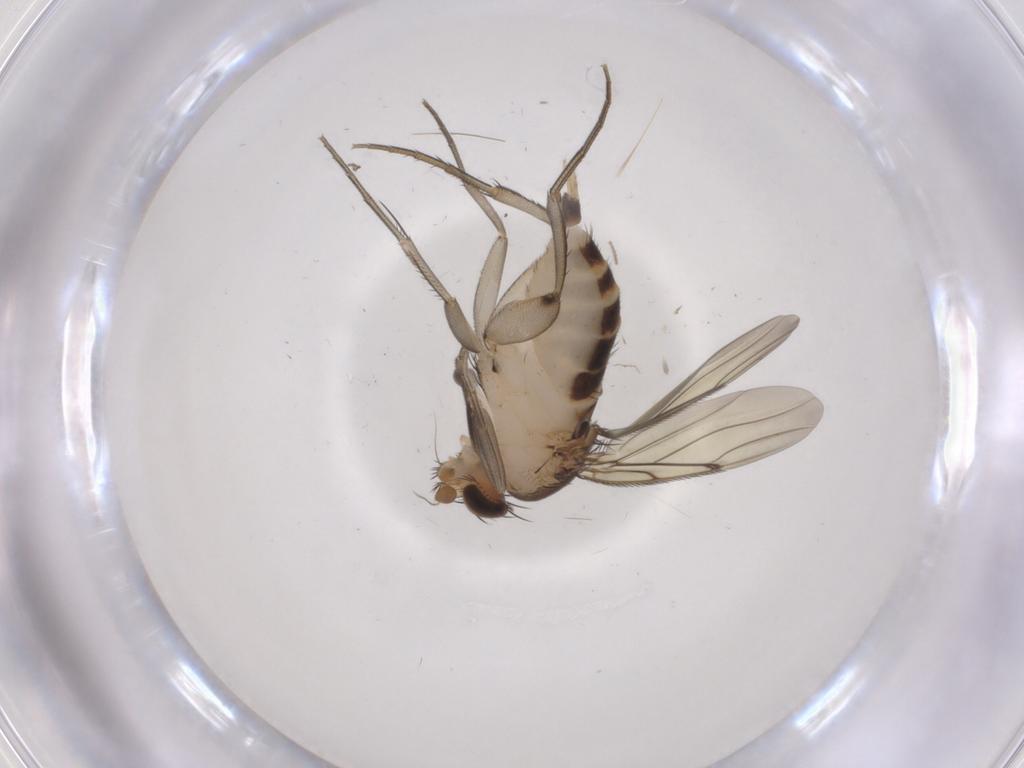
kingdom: Animalia
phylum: Arthropoda
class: Insecta
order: Diptera
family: Phoridae
